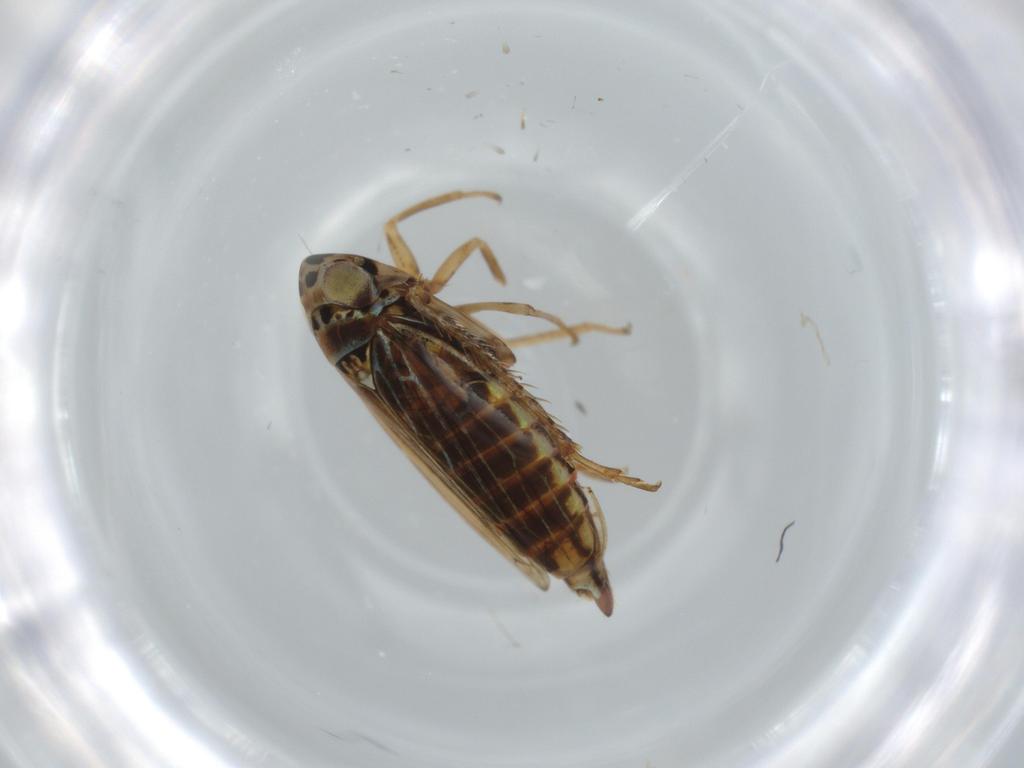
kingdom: Animalia
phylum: Arthropoda
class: Insecta
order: Hemiptera
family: Cicadellidae
